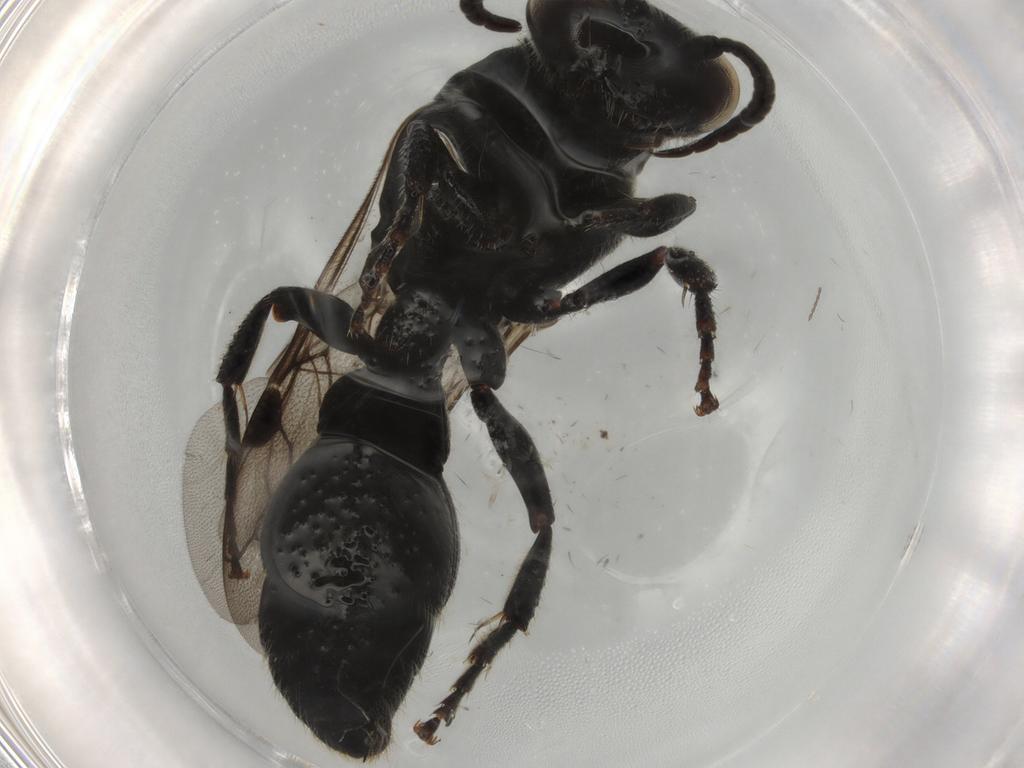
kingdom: Animalia
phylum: Arthropoda
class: Insecta
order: Hymenoptera
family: Tiphiidae
